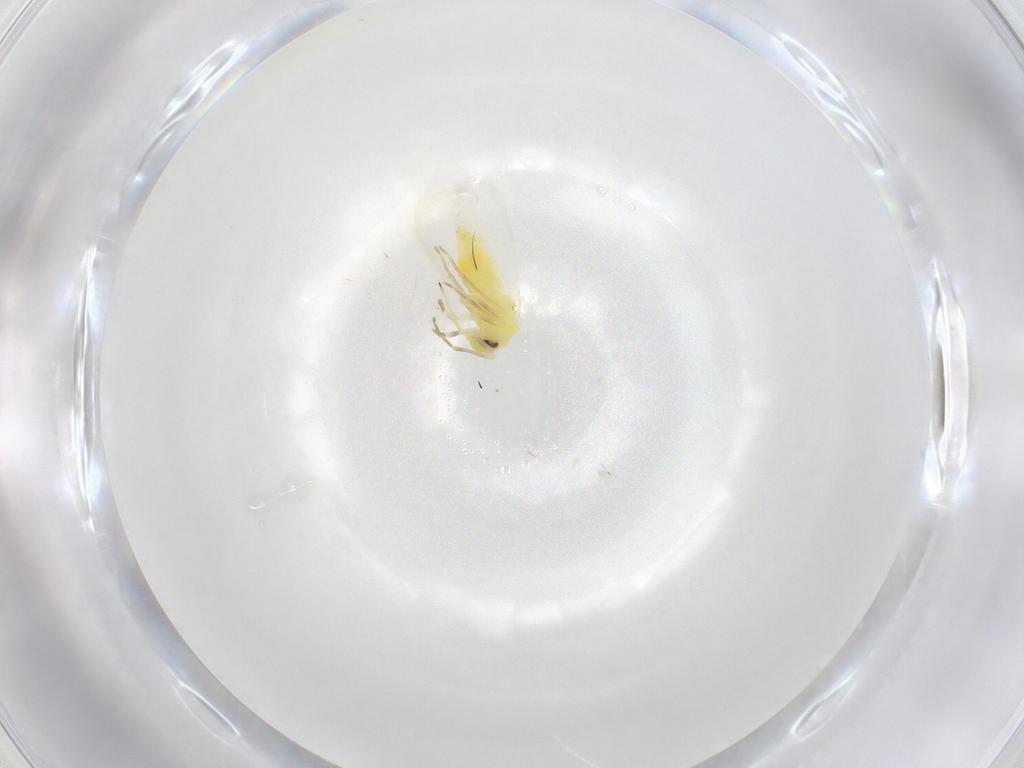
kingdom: Animalia
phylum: Arthropoda
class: Insecta
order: Hemiptera
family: Aleyrodidae
